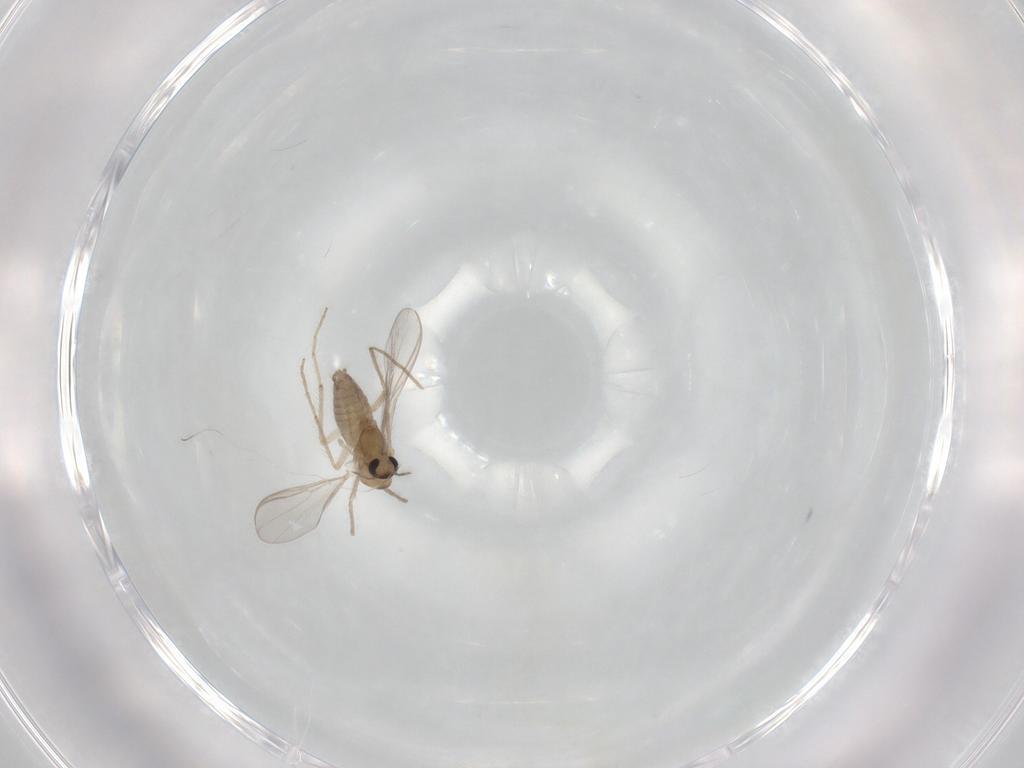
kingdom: Animalia
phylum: Arthropoda
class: Insecta
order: Diptera
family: Chironomidae
